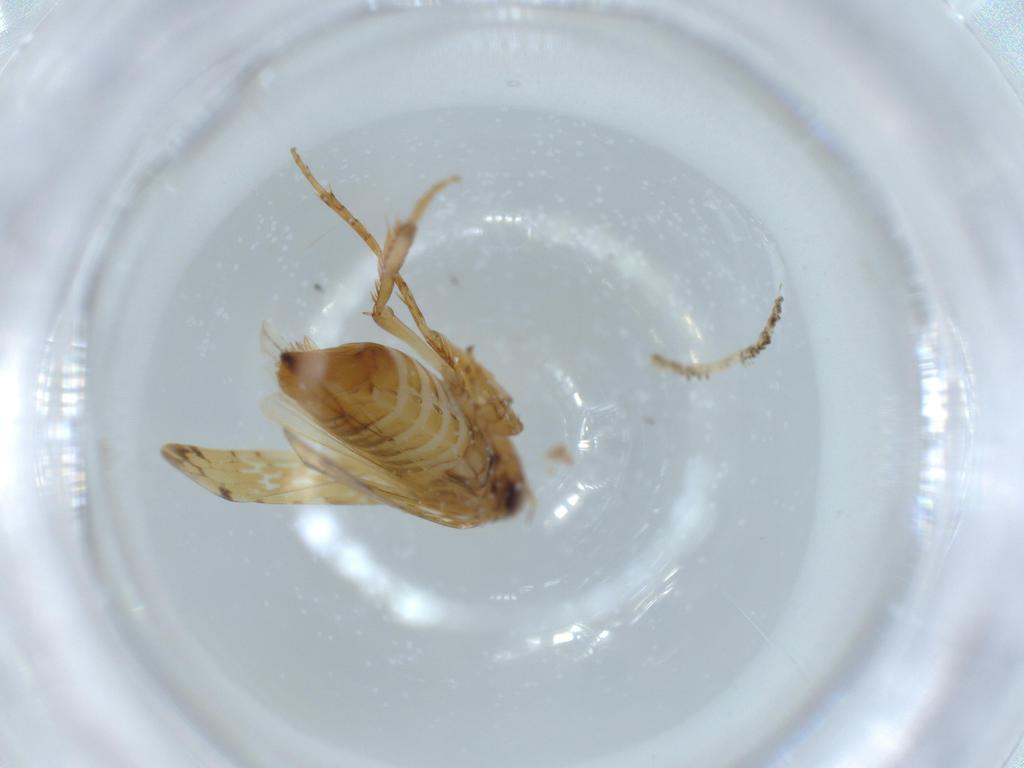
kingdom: Animalia
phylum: Arthropoda
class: Insecta
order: Hemiptera
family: Cicadellidae
